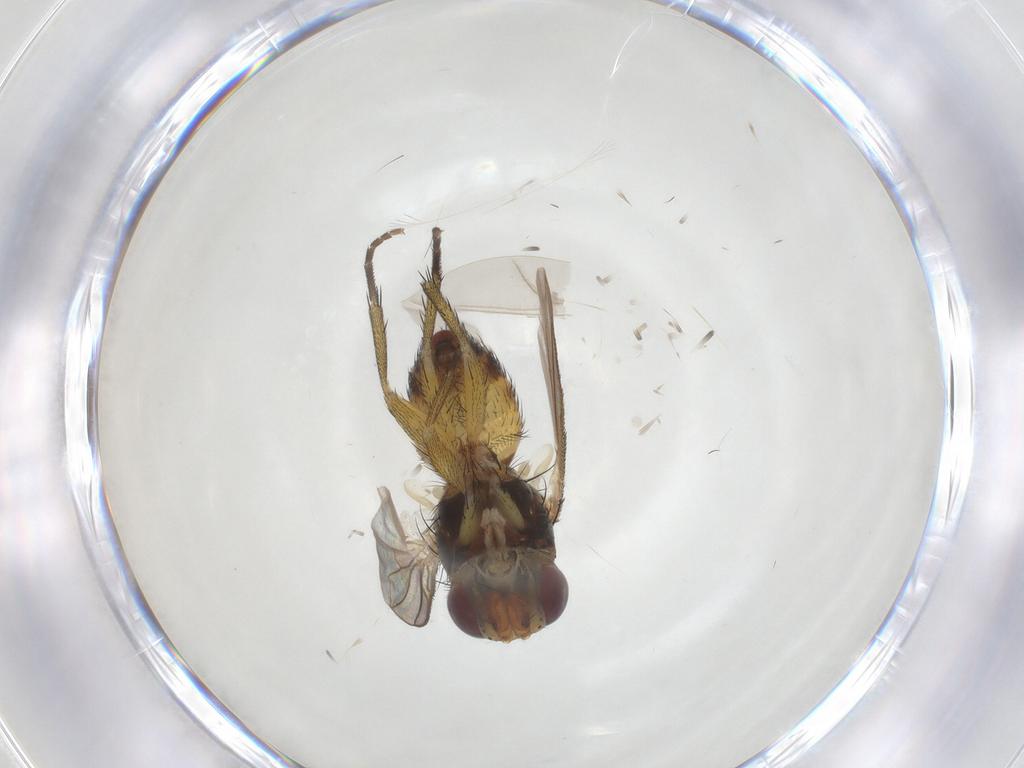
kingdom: Animalia
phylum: Arthropoda
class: Insecta
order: Diptera
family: Tachinidae
